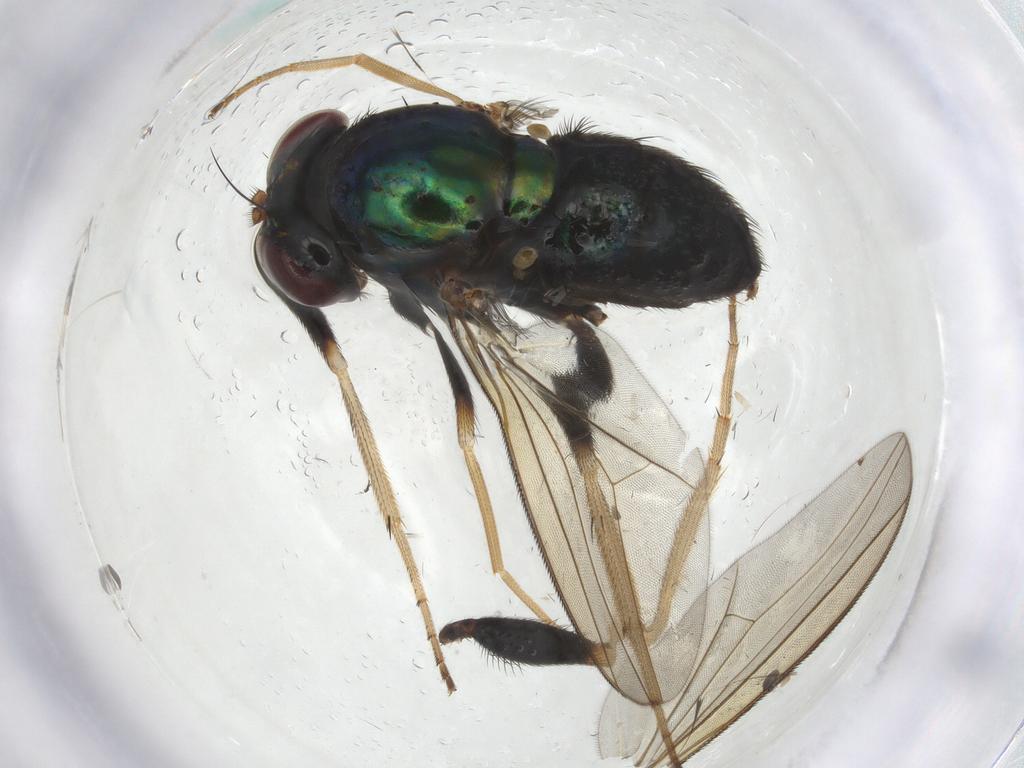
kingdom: Animalia
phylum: Arthropoda
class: Insecta
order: Diptera
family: Dolichopodidae
